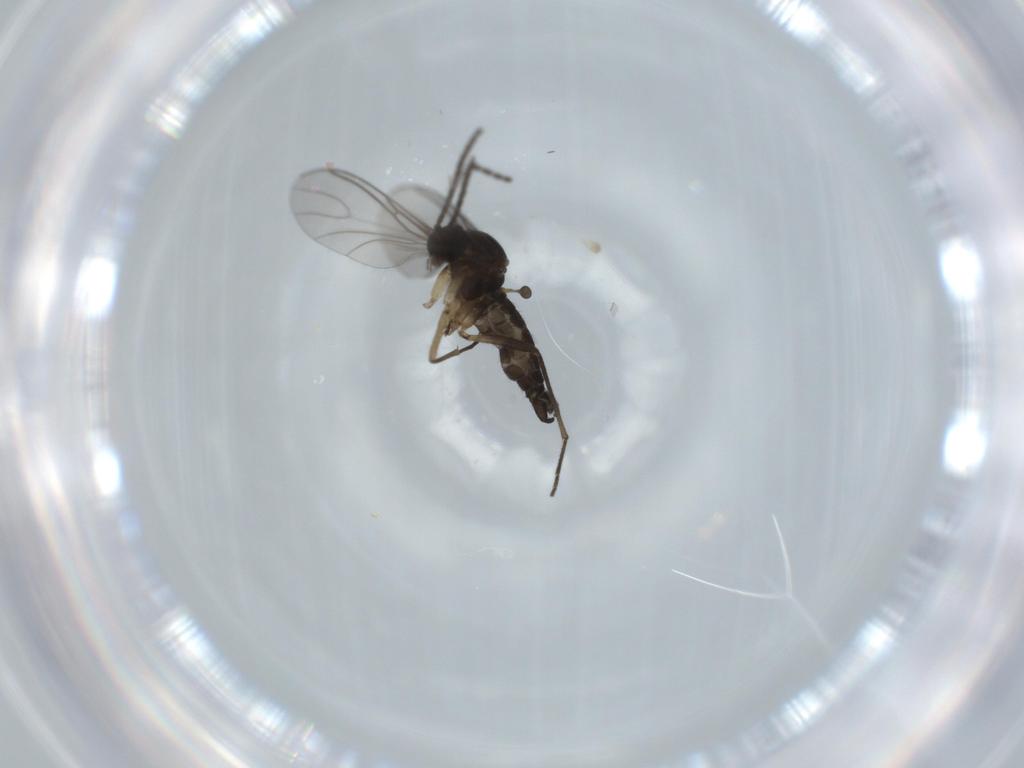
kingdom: Animalia
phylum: Arthropoda
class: Insecta
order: Diptera
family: Sciaridae
